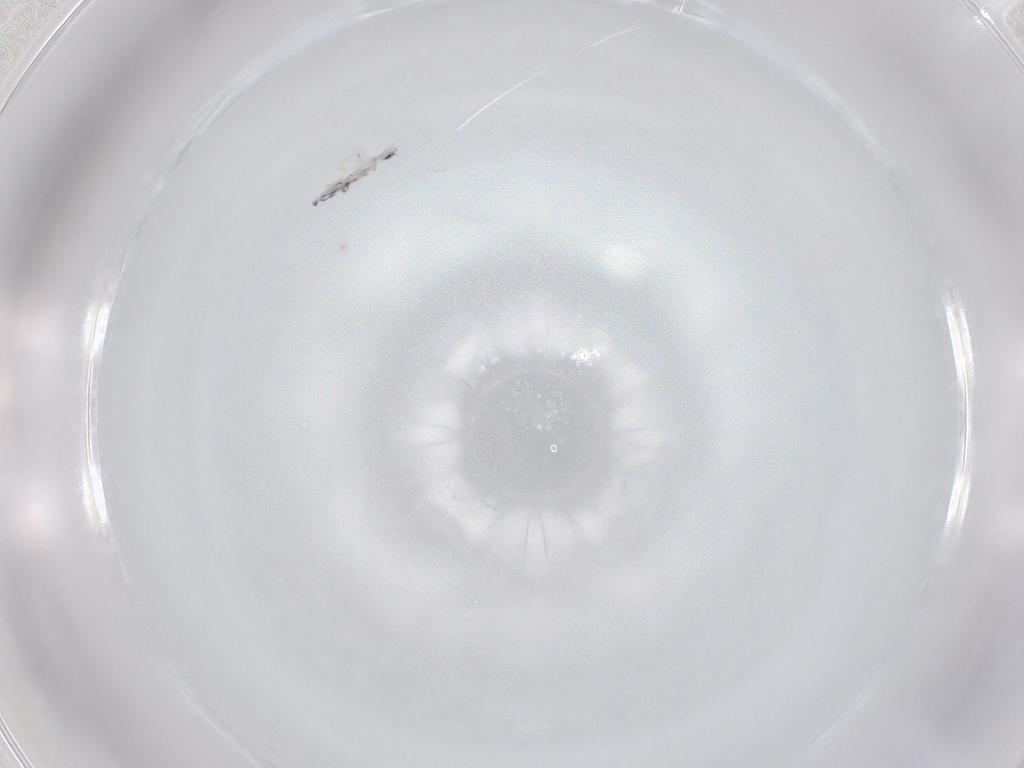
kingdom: Animalia
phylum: Arthropoda
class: Collembola
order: Entomobryomorpha
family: Entomobryidae
